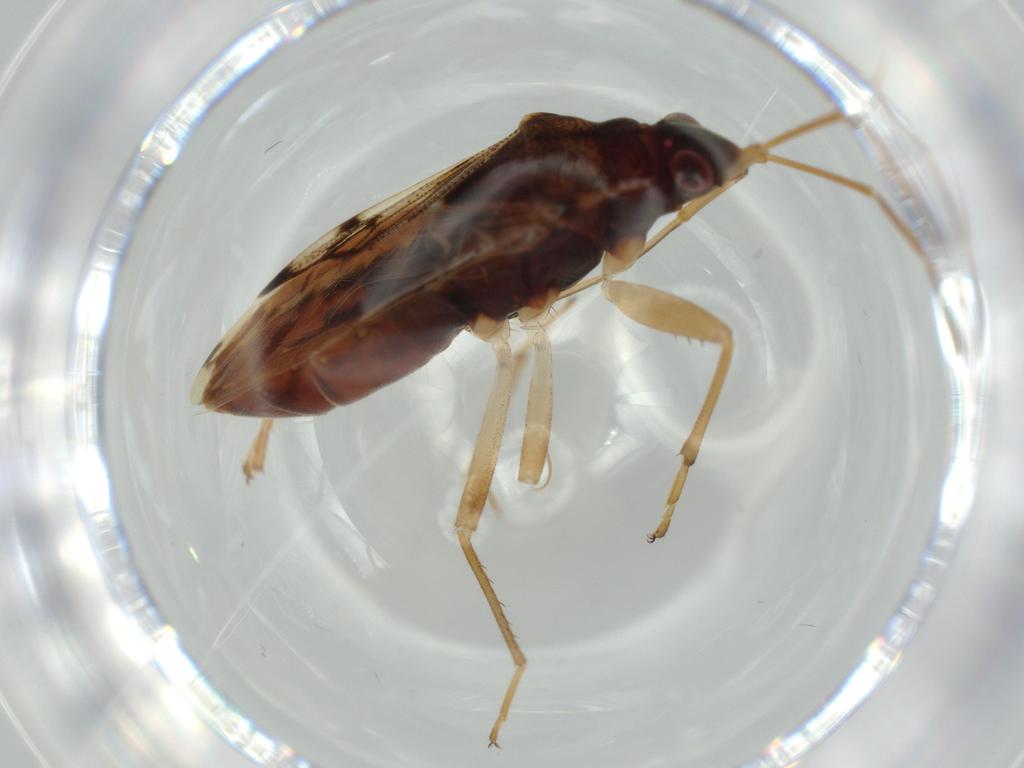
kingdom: Animalia
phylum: Arthropoda
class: Insecta
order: Hemiptera
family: Rhyparochromidae
